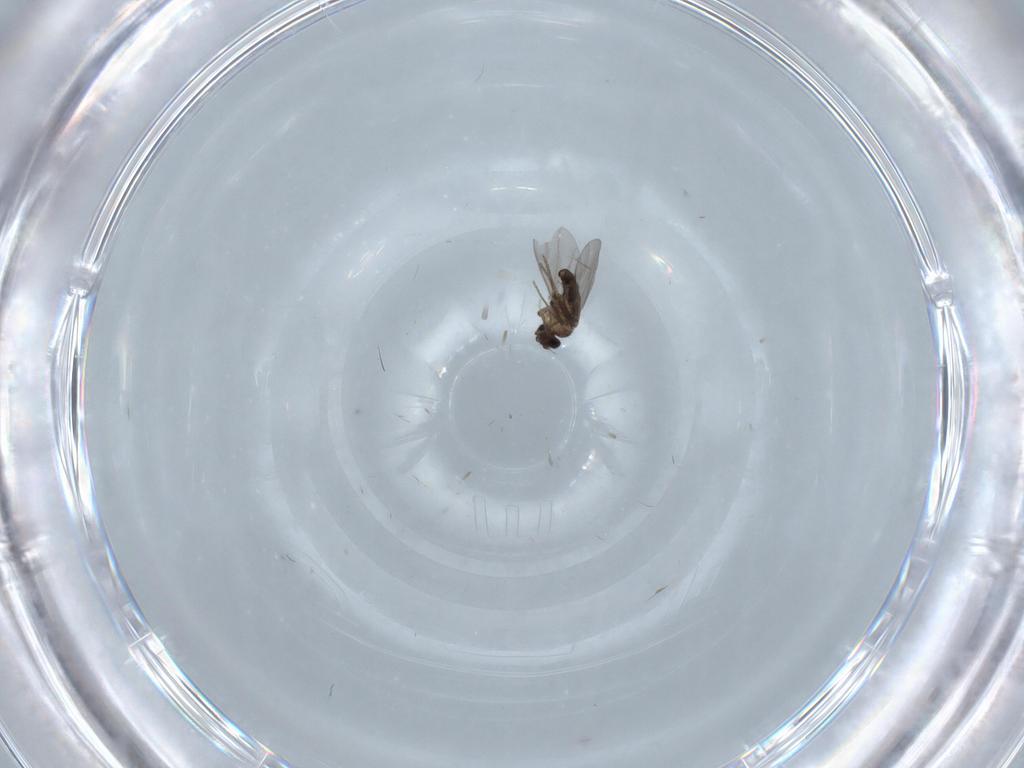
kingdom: Animalia
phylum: Arthropoda
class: Insecta
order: Diptera
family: Cecidomyiidae
